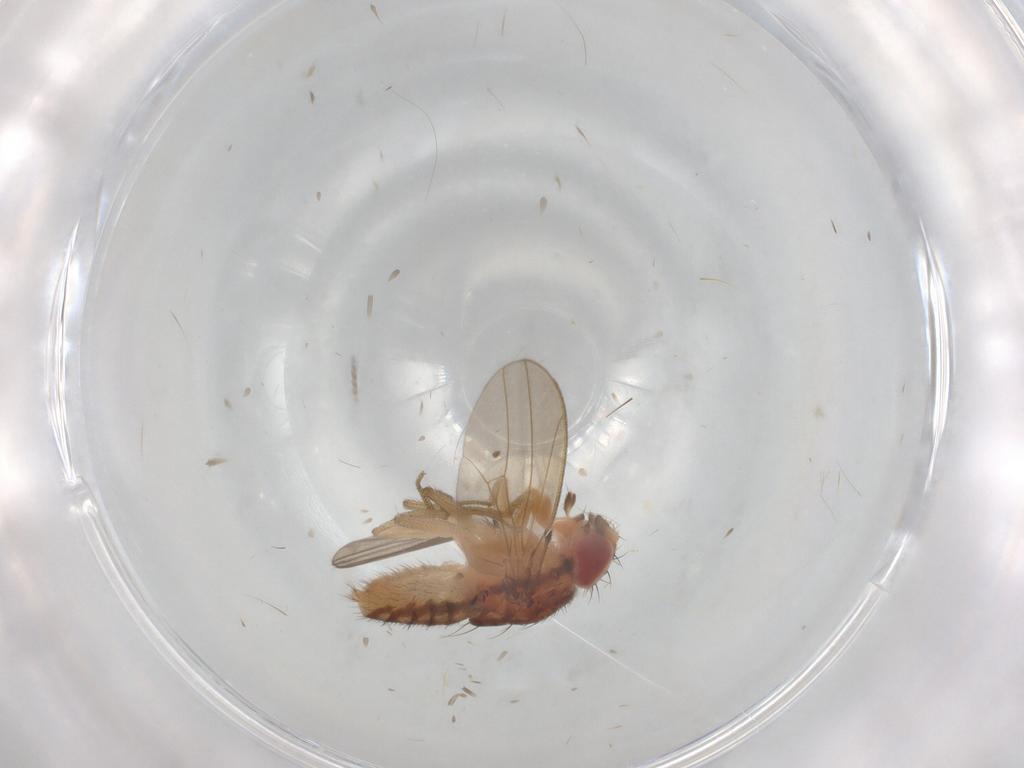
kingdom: Animalia
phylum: Arthropoda
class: Insecta
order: Diptera
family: Drosophilidae
